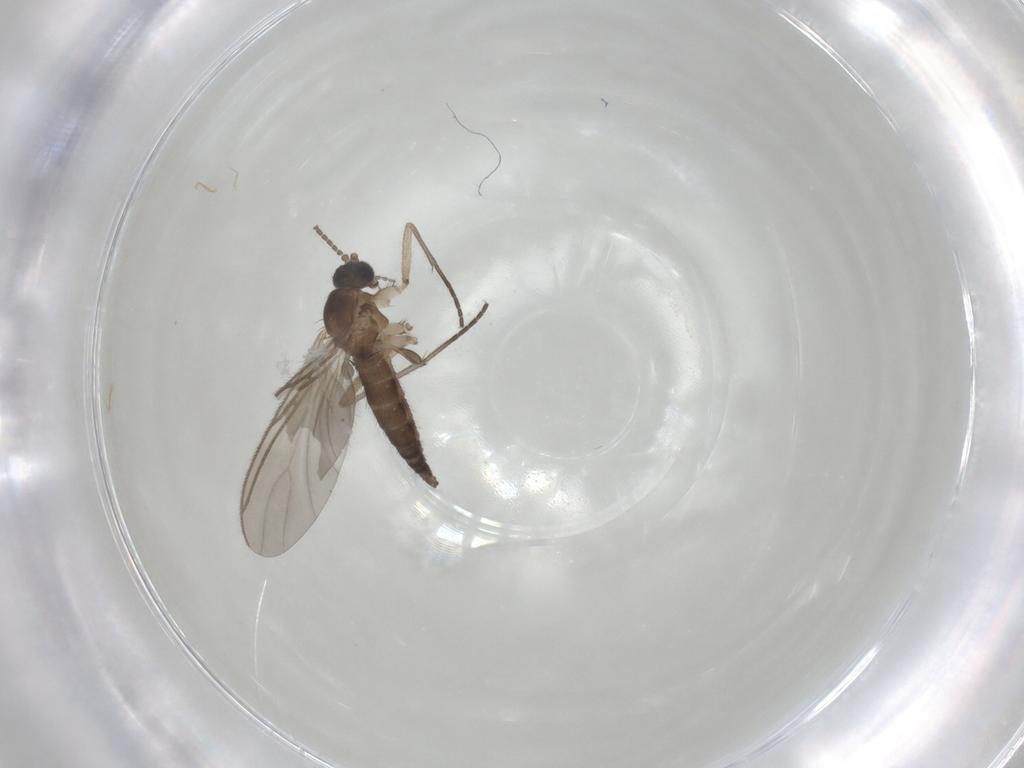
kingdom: Animalia
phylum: Arthropoda
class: Insecta
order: Diptera
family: Sciaridae
